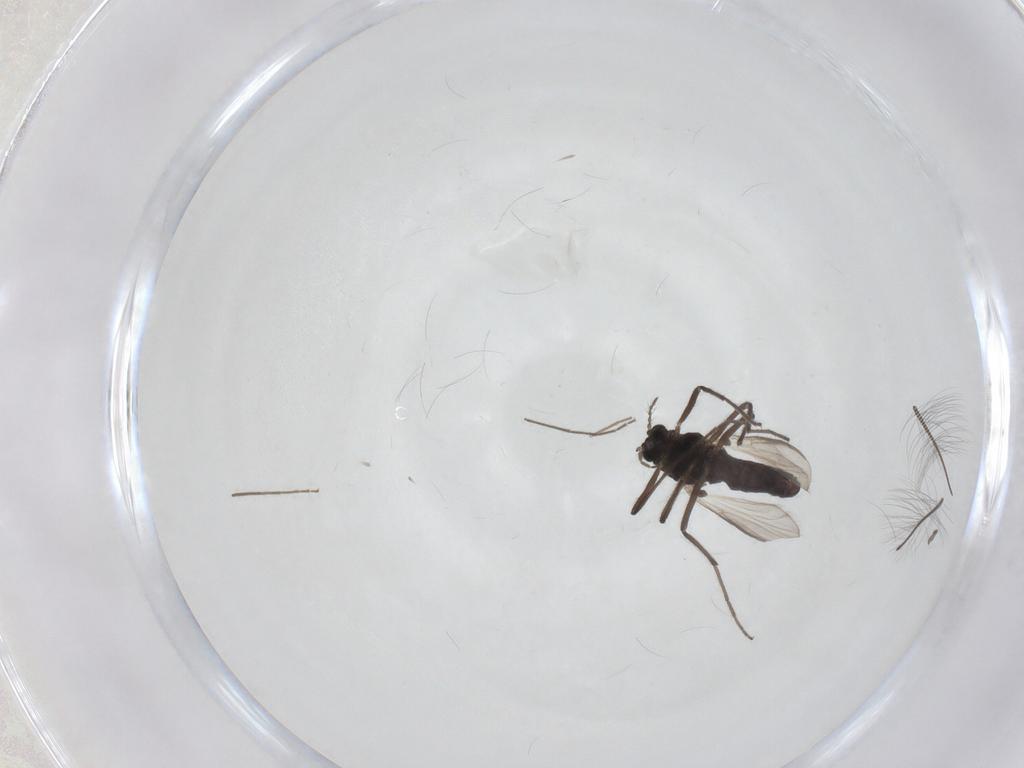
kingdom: Animalia
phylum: Arthropoda
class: Insecta
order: Diptera
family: Chironomidae
